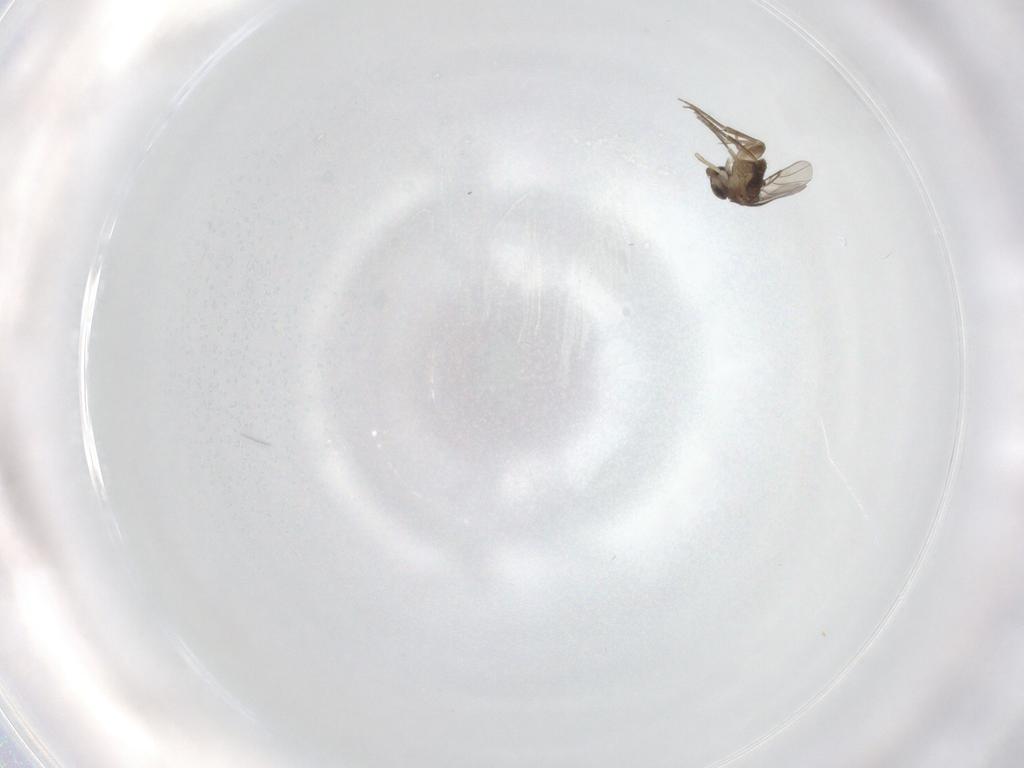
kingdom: Animalia
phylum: Arthropoda
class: Insecta
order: Diptera
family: Phoridae
